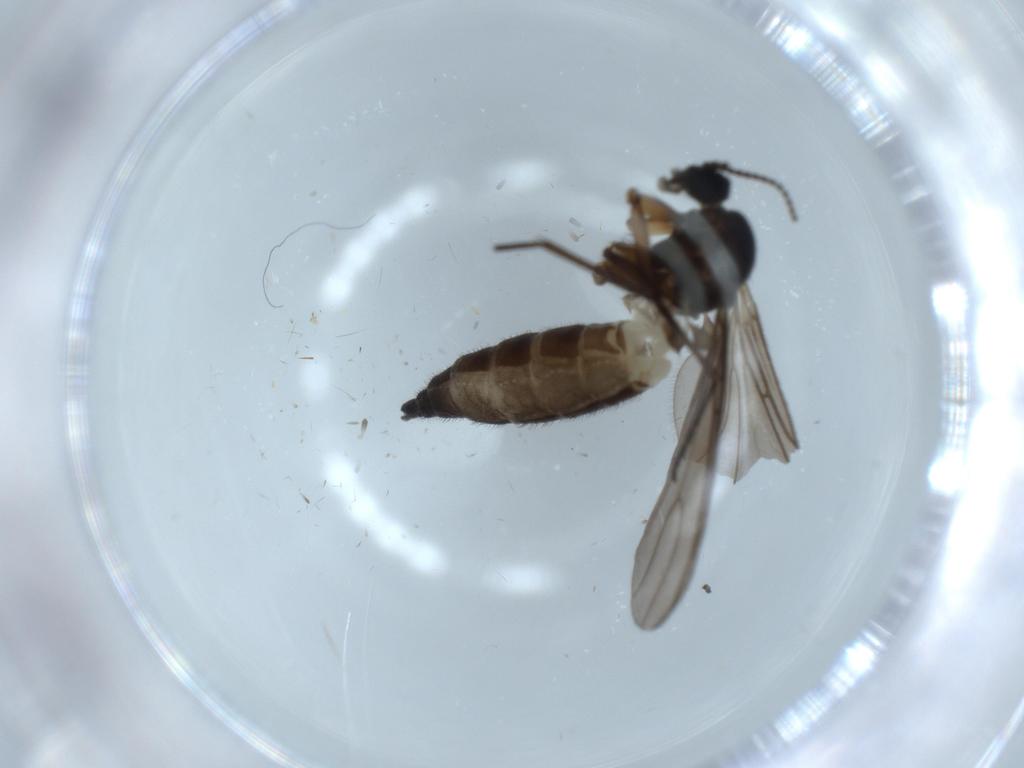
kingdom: Animalia
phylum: Arthropoda
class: Insecta
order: Diptera
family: Sciaridae
